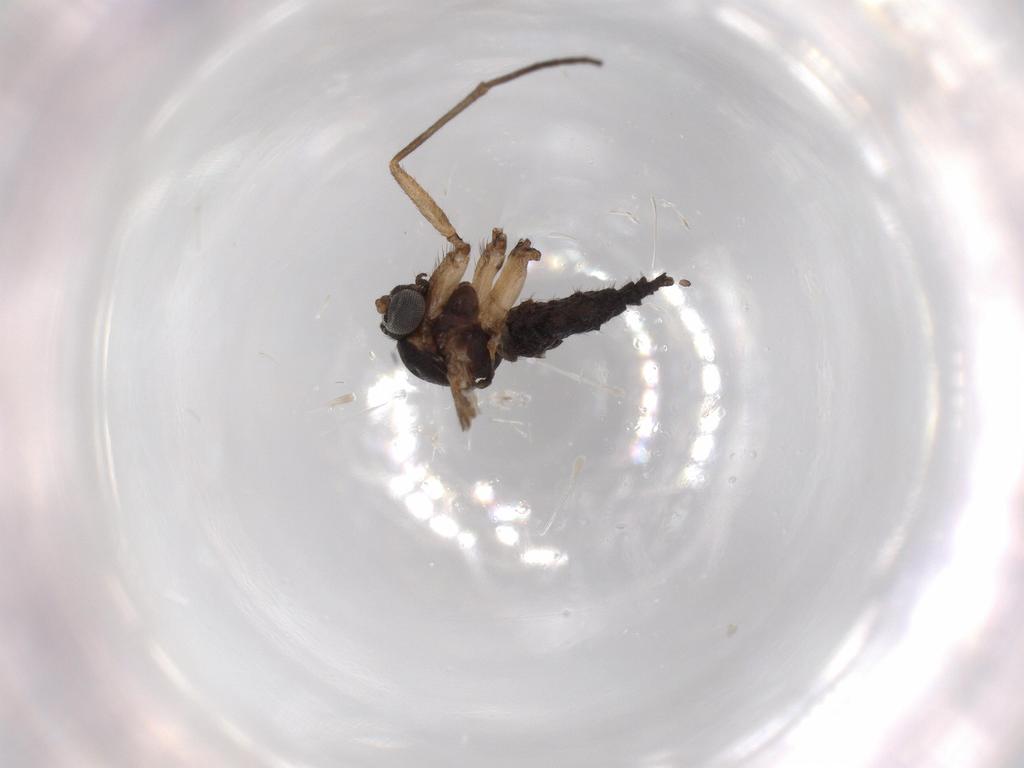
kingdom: Animalia
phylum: Arthropoda
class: Insecta
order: Diptera
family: Sciaridae
